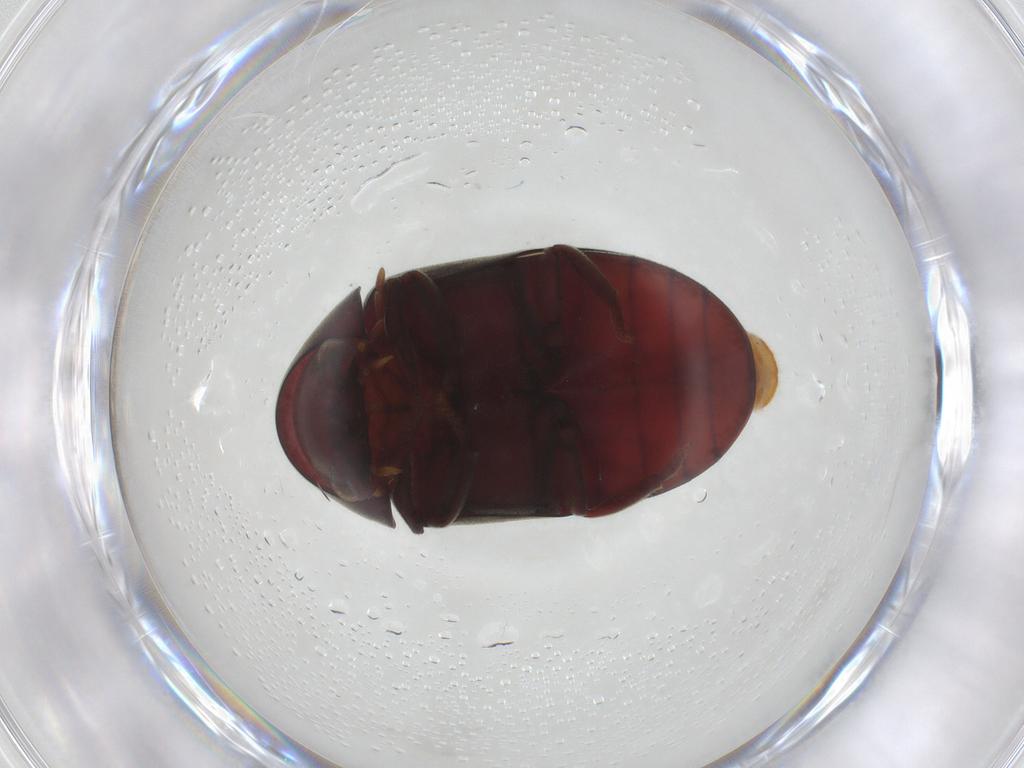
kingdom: Animalia
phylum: Arthropoda
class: Insecta
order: Coleoptera
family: Ptinidae
